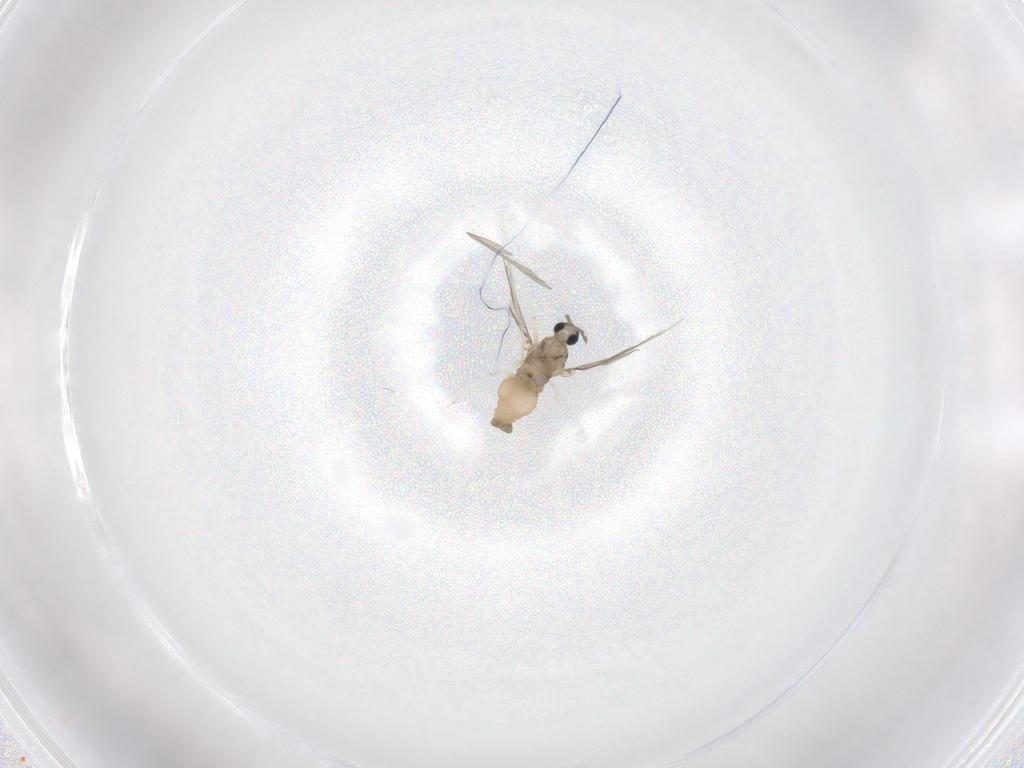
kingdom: Animalia
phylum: Arthropoda
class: Insecta
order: Diptera
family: Cecidomyiidae
